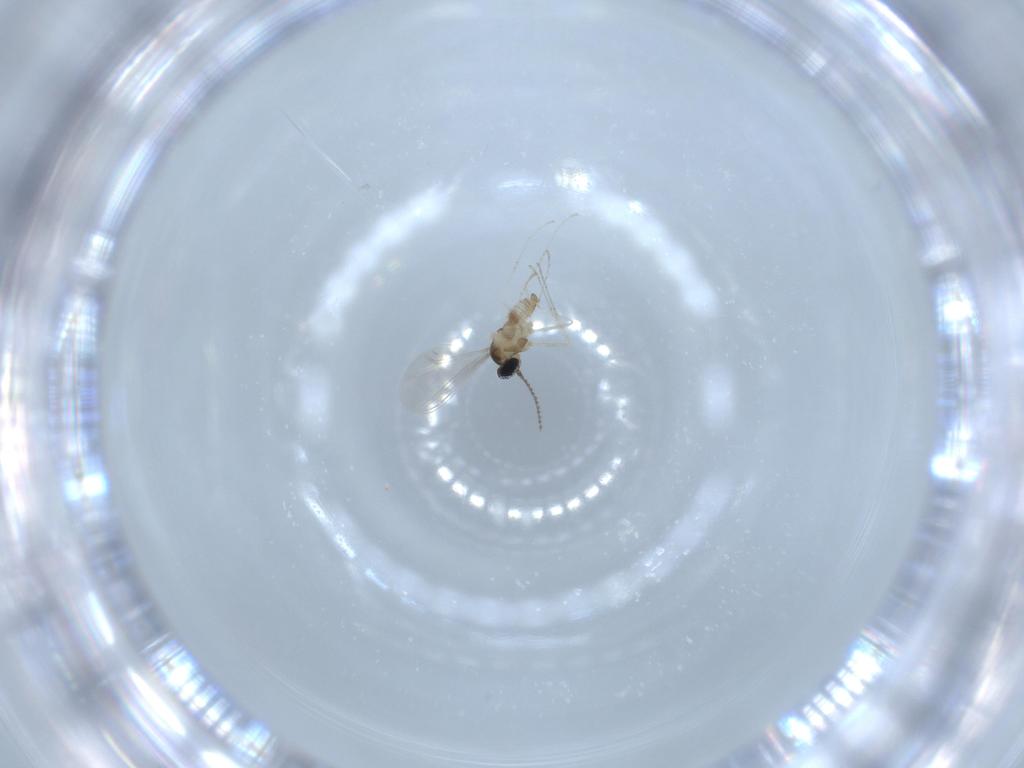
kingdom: Animalia
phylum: Arthropoda
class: Insecta
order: Diptera
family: Cecidomyiidae
